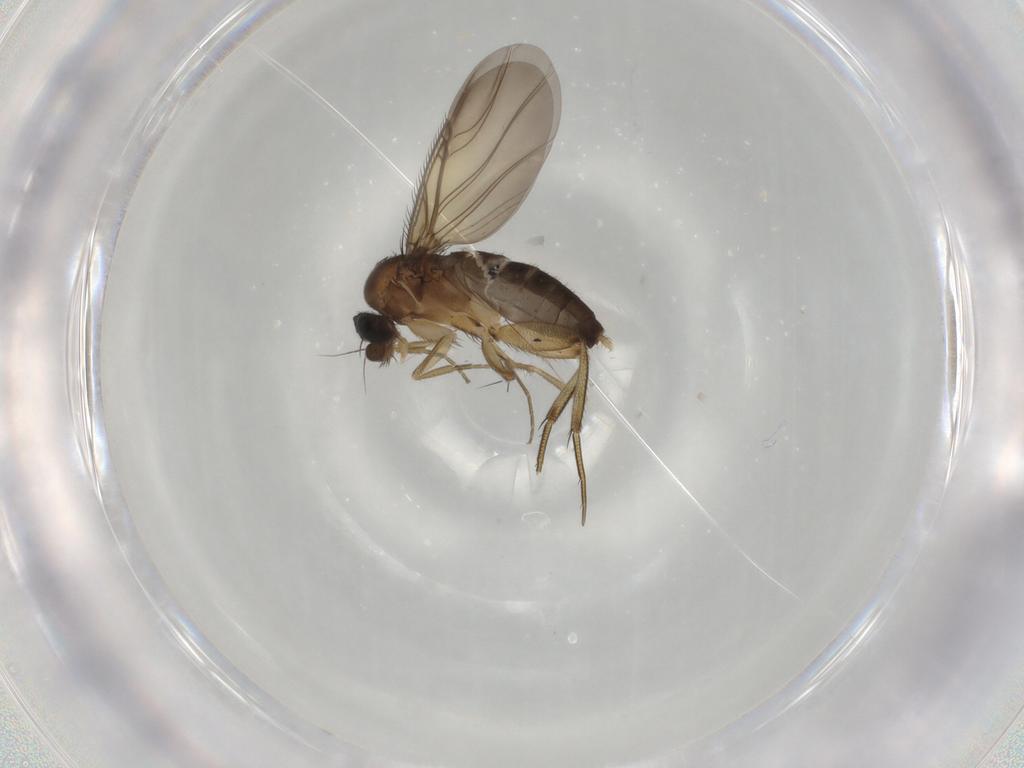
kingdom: Animalia
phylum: Arthropoda
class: Insecta
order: Diptera
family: Phoridae
